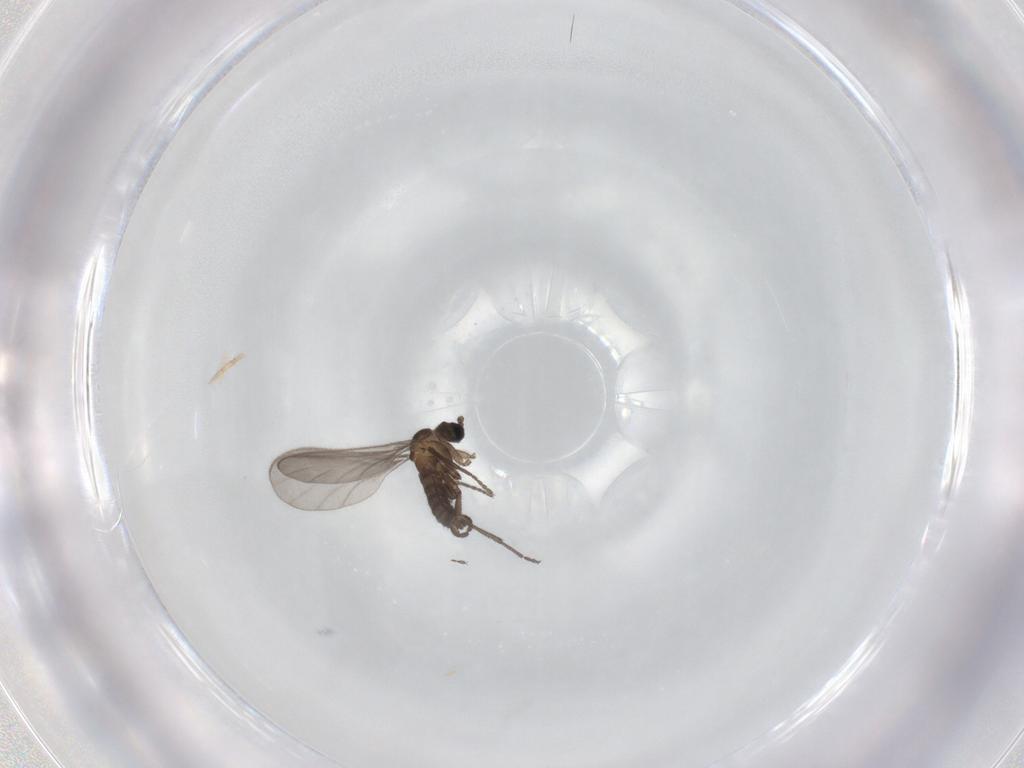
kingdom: Animalia
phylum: Arthropoda
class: Insecta
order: Diptera
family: Sciaridae
